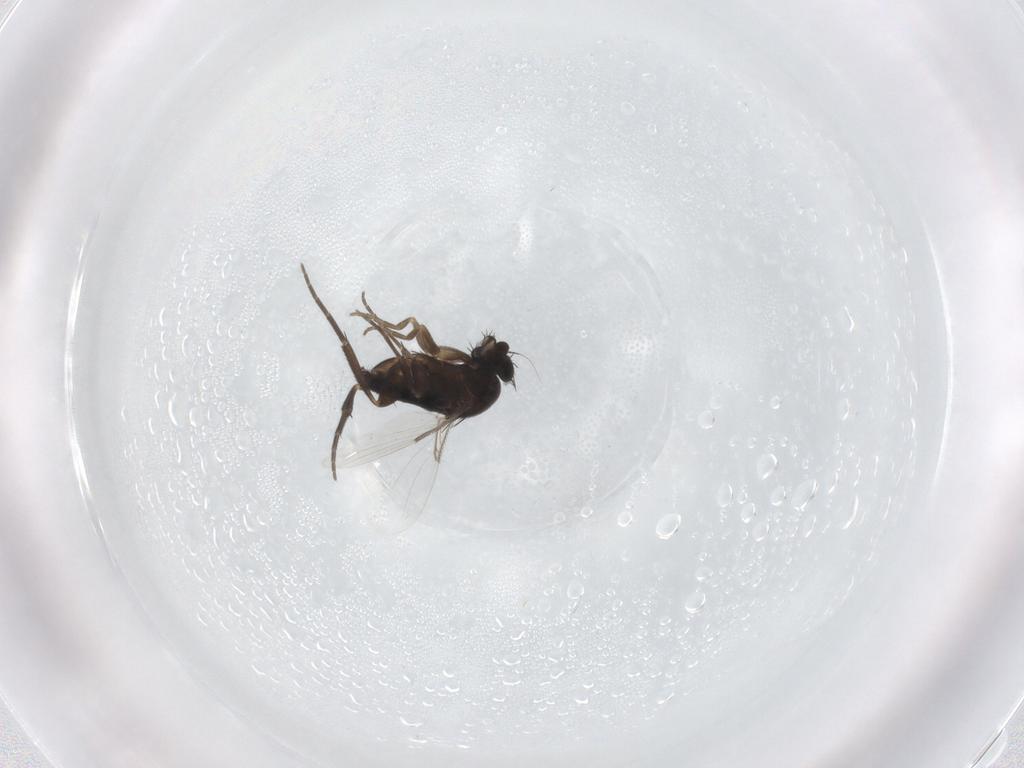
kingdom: Animalia
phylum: Arthropoda
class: Insecta
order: Diptera
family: Phoridae
